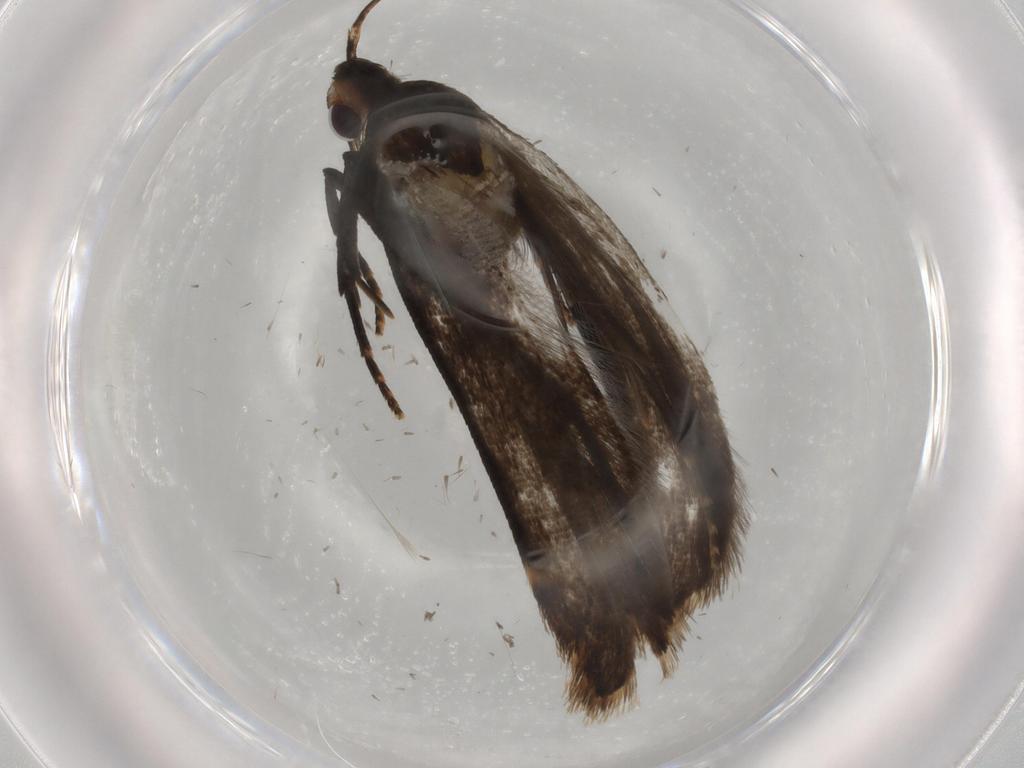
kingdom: Animalia
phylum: Arthropoda
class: Insecta
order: Lepidoptera
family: Gelechiidae
